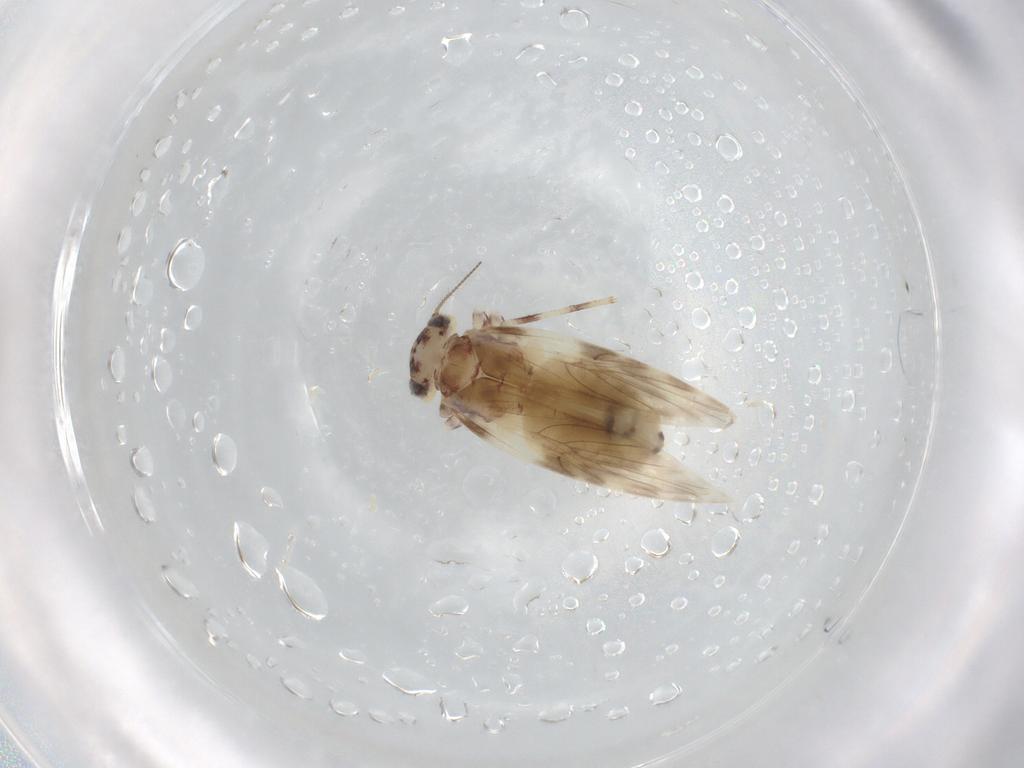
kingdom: Animalia
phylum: Arthropoda
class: Insecta
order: Psocodea
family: Lepidopsocidae
